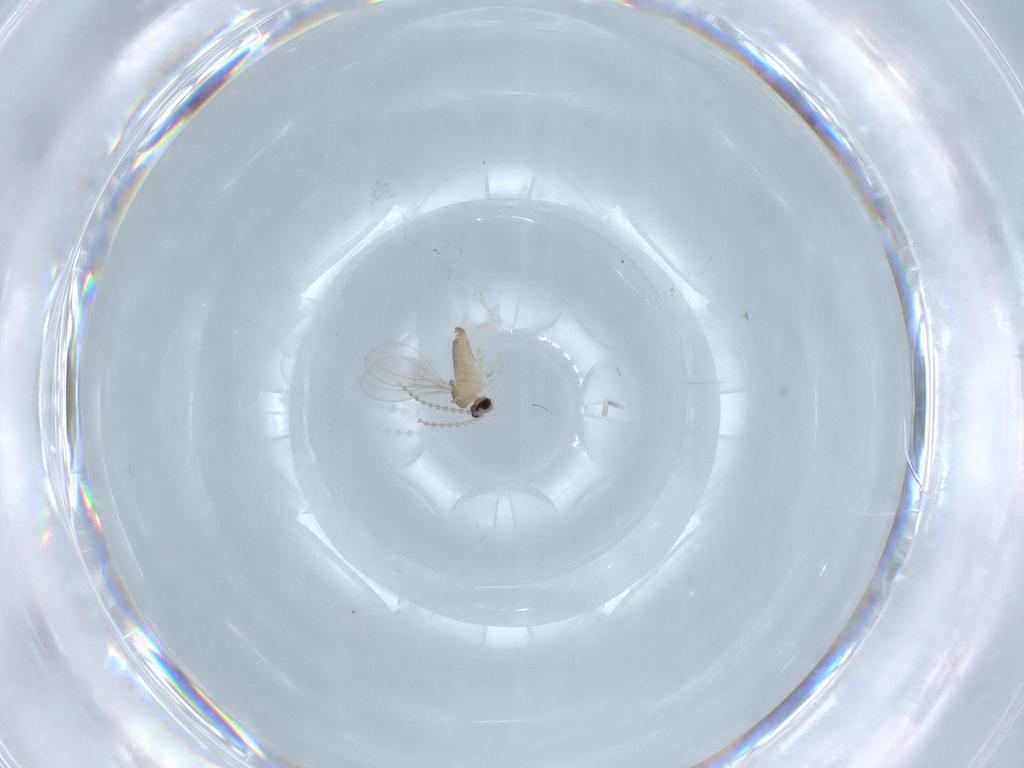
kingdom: Animalia
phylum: Arthropoda
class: Insecta
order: Diptera
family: Cecidomyiidae
